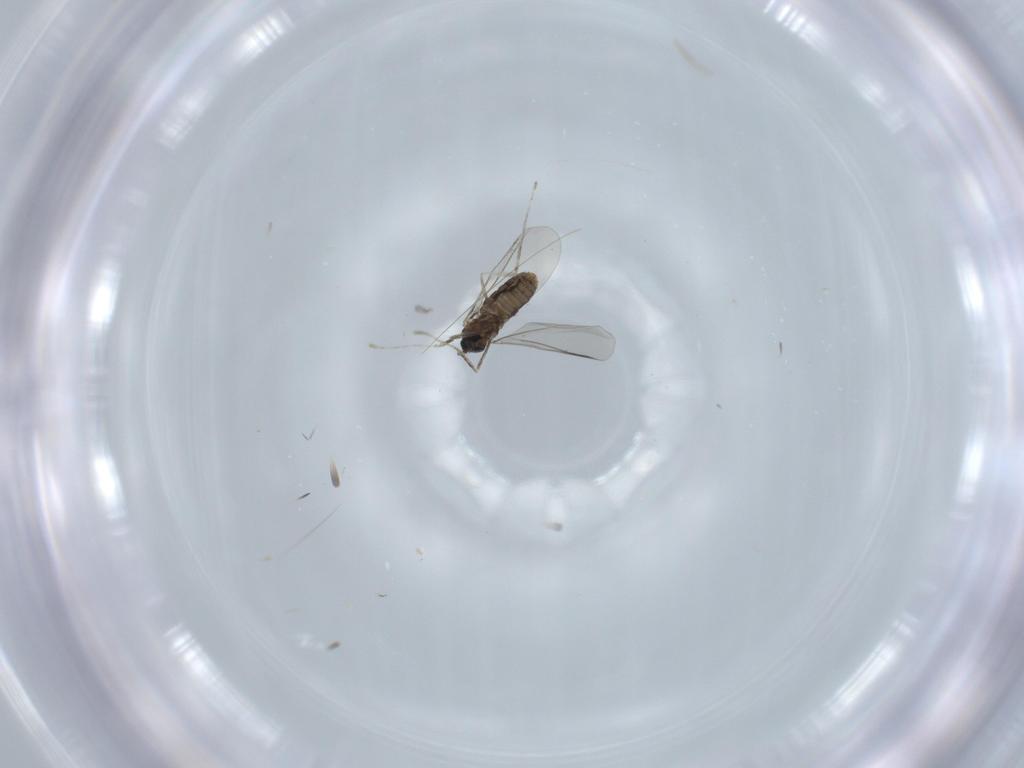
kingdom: Animalia
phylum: Arthropoda
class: Insecta
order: Diptera
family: Cecidomyiidae
